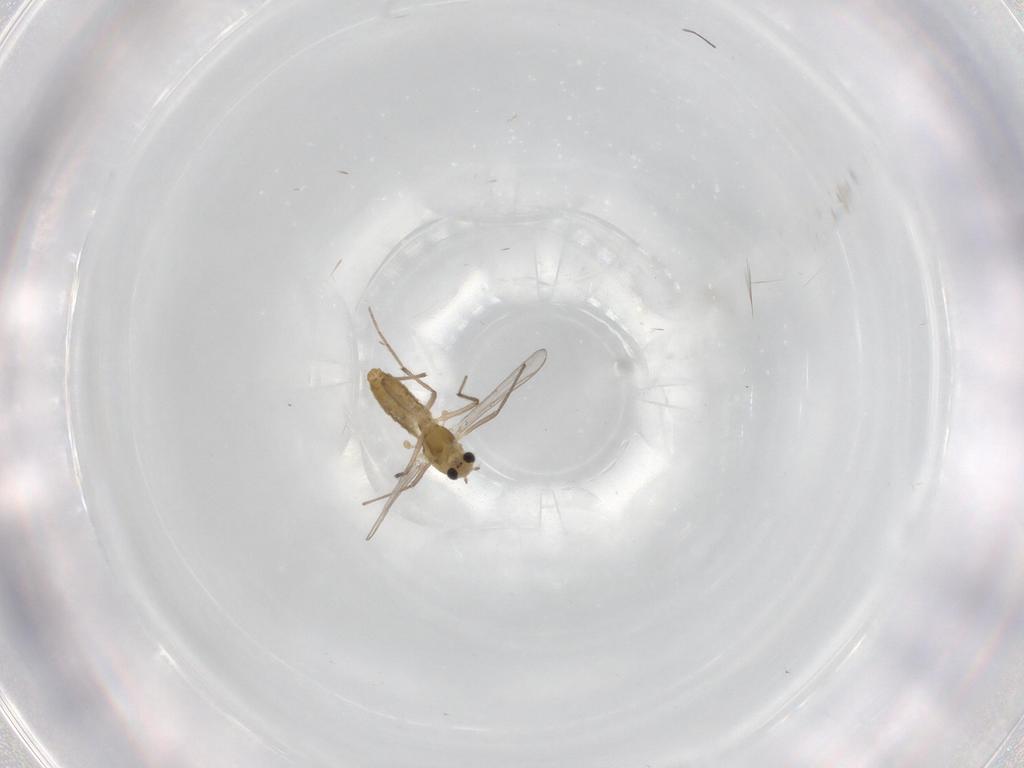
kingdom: Animalia
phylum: Arthropoda
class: Insecta
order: Diptera
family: Chironomidae
